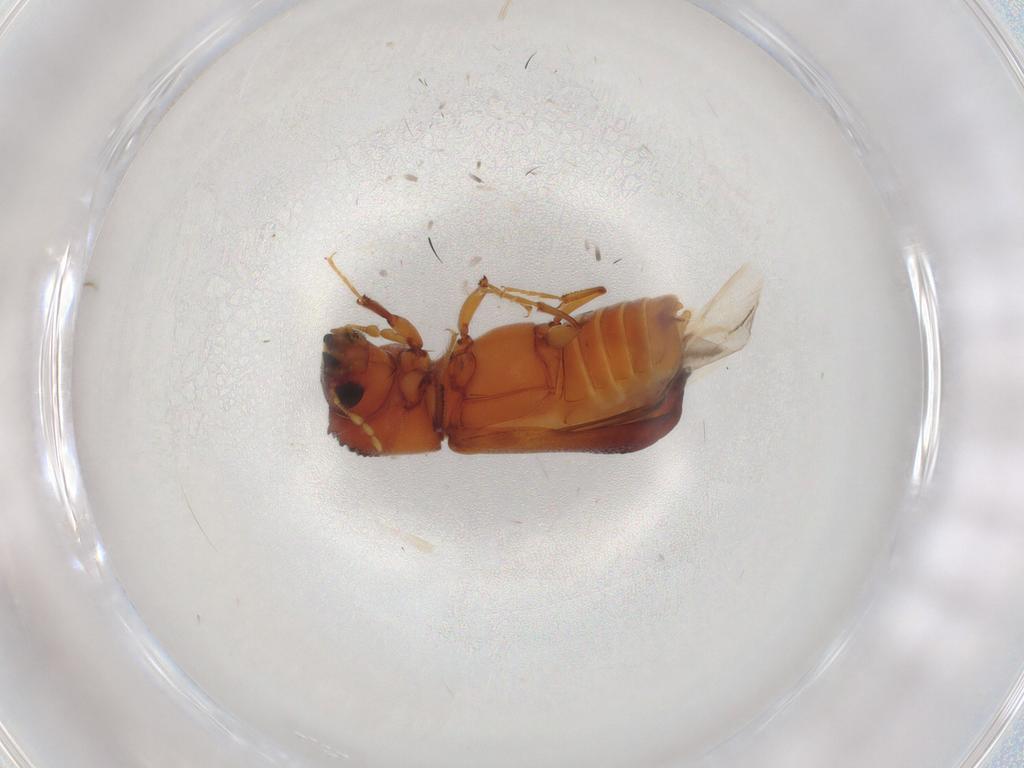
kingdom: Animalia
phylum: Arthropoda
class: Insecta
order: Coleoptera
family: Bostrichidae
